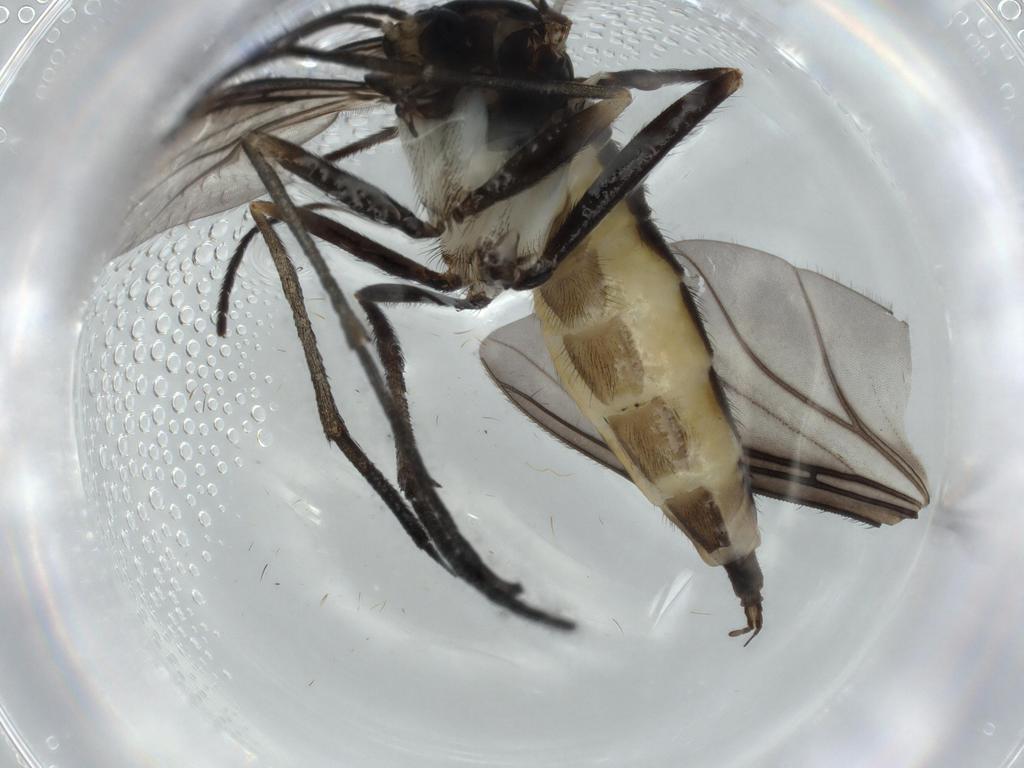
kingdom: Animalia
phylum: Arthropoda
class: Insecta
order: Diptera
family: Sciaridae
